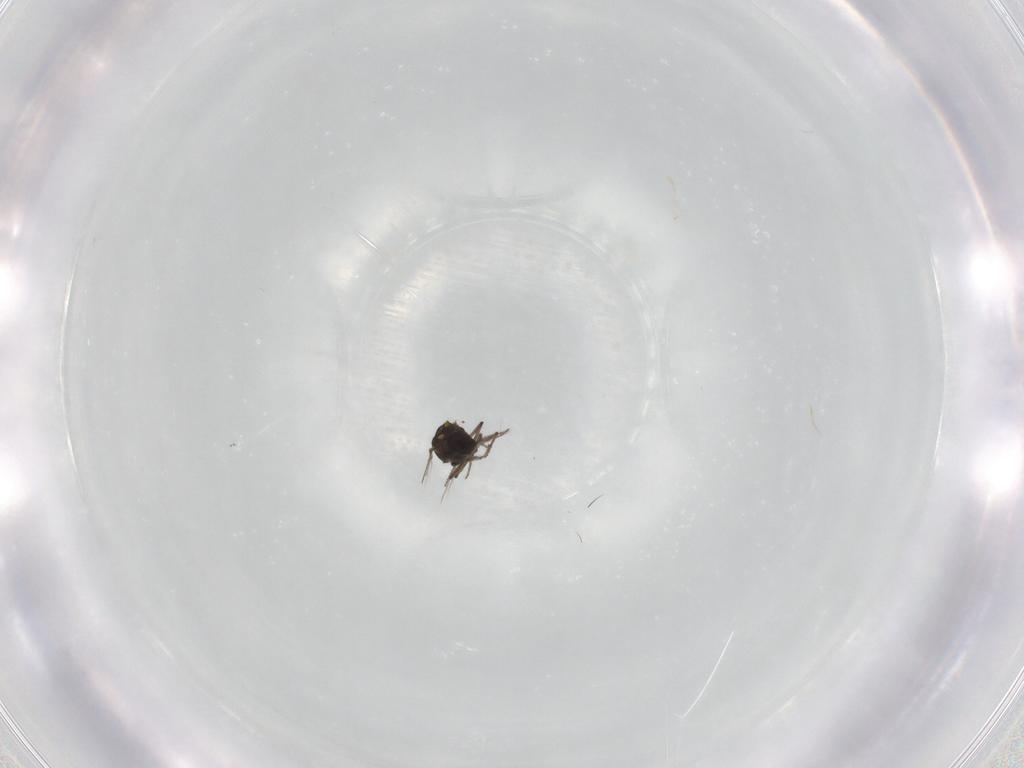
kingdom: Animalia
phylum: Arthropoda
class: Insecta
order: Diptera
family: Ceratopogonidae
